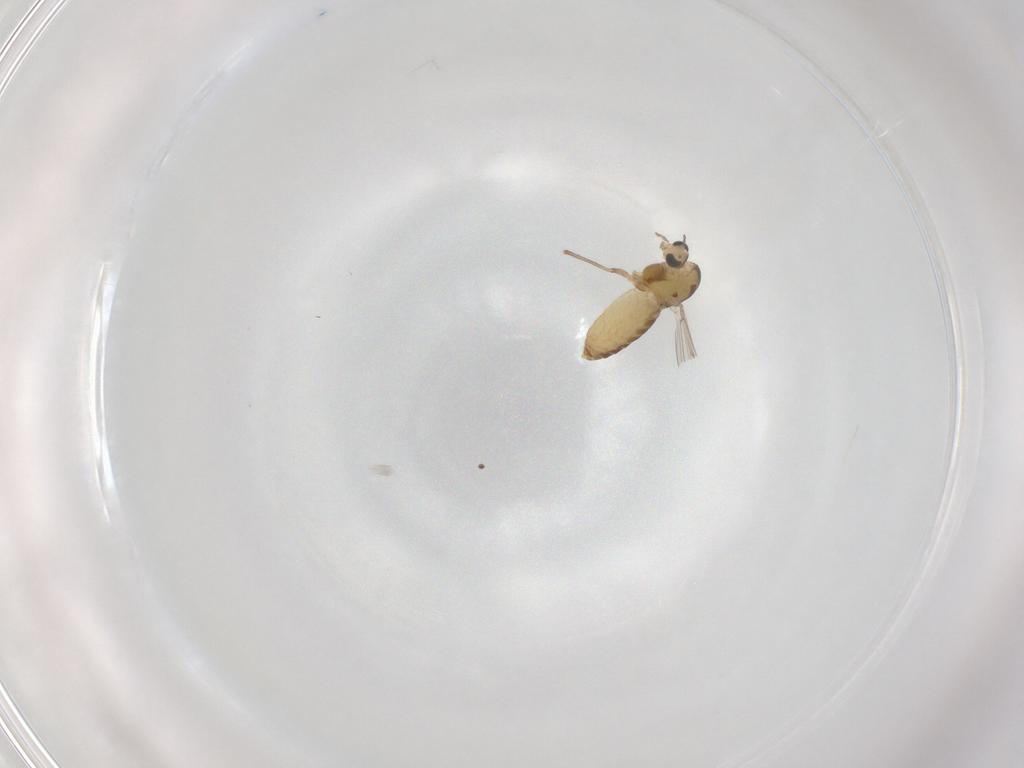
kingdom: Animalia
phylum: Arthropoda
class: Insecta
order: Diptera
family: Chironomidae
